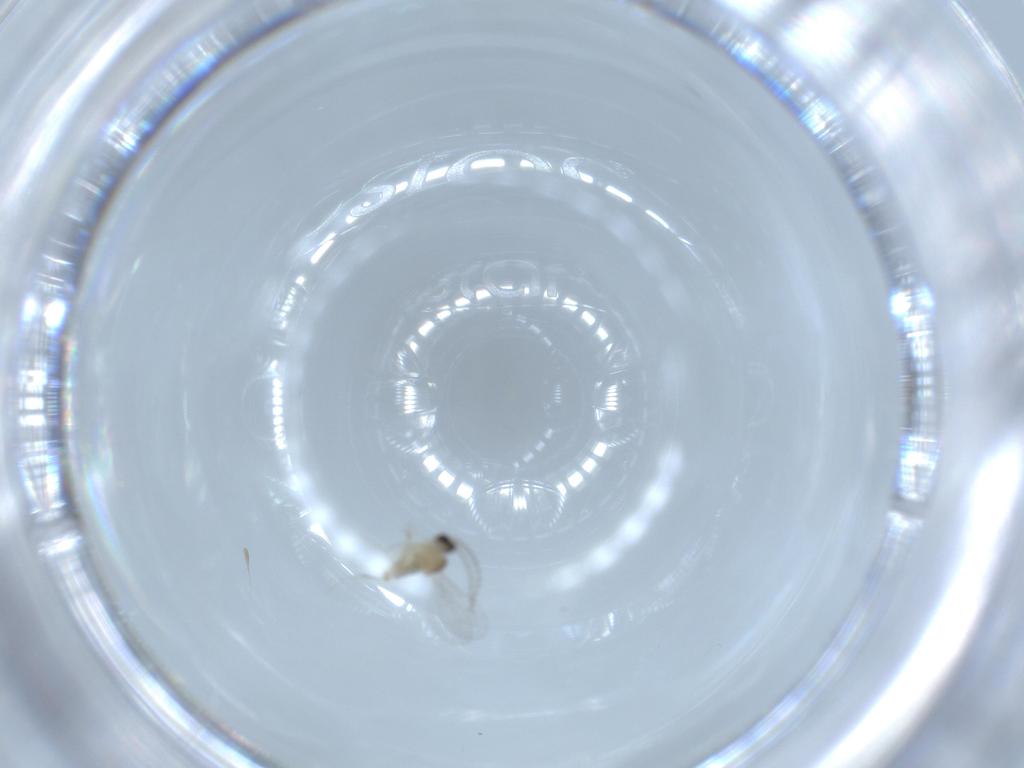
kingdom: Animalia
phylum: Arthropoda
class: Insecta
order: Diptera
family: Cecidomyiidae
